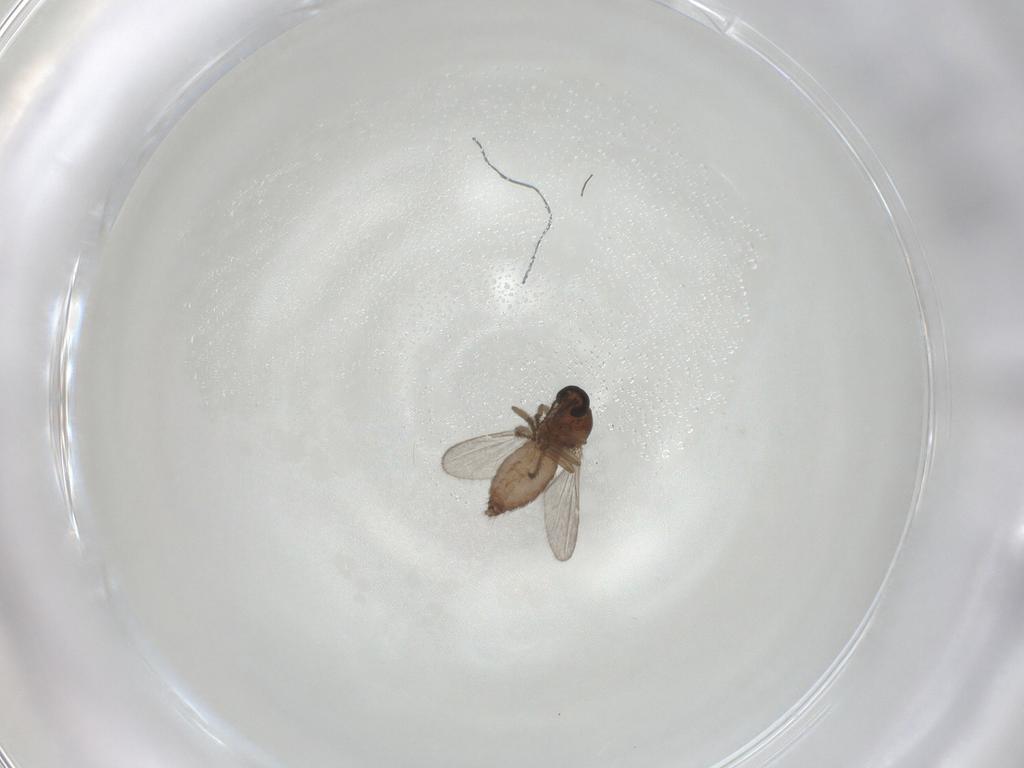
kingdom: Animalia
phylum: Arthropoda
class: Insecta
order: Diptera
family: Ceratopogonidae
